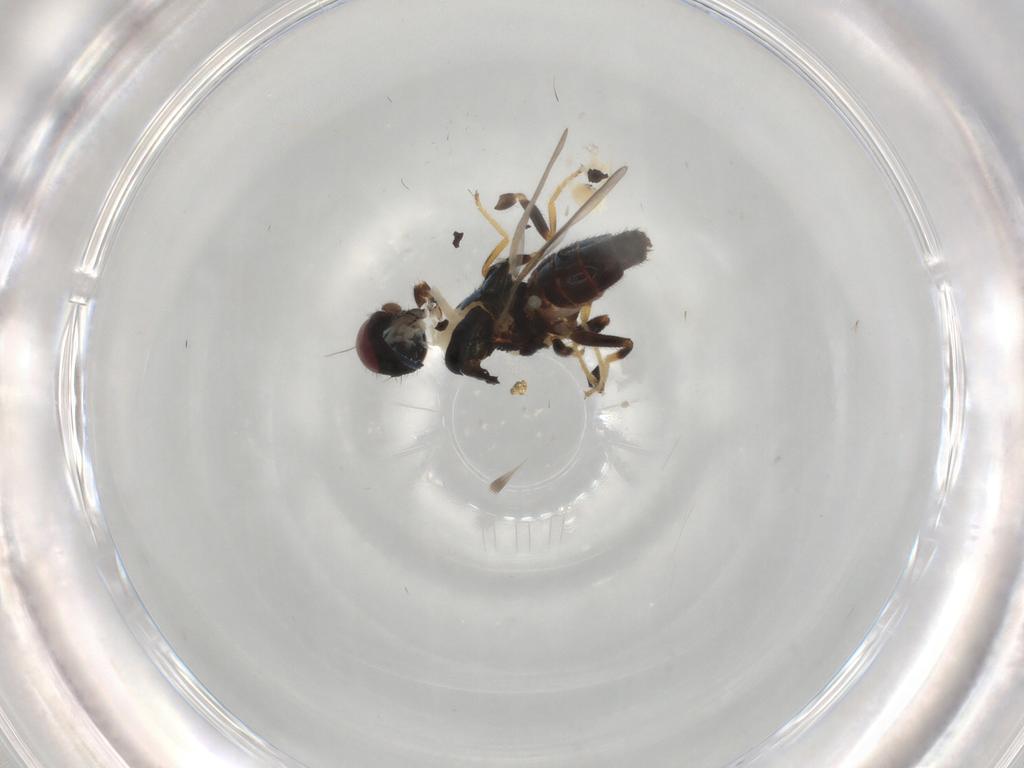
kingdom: Animalia
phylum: Arthropoda
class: Insecta
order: Diptera
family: Chloropidae
